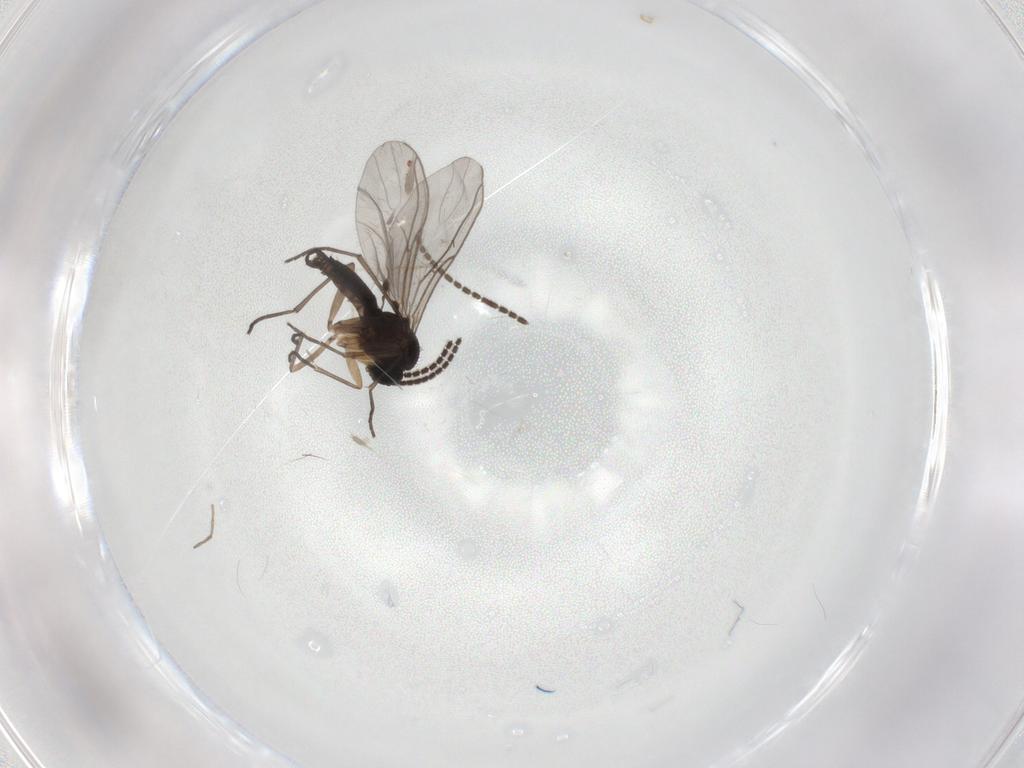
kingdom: Animalia
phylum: Arthropoda
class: Insecta
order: Diptera
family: Sciaridae
